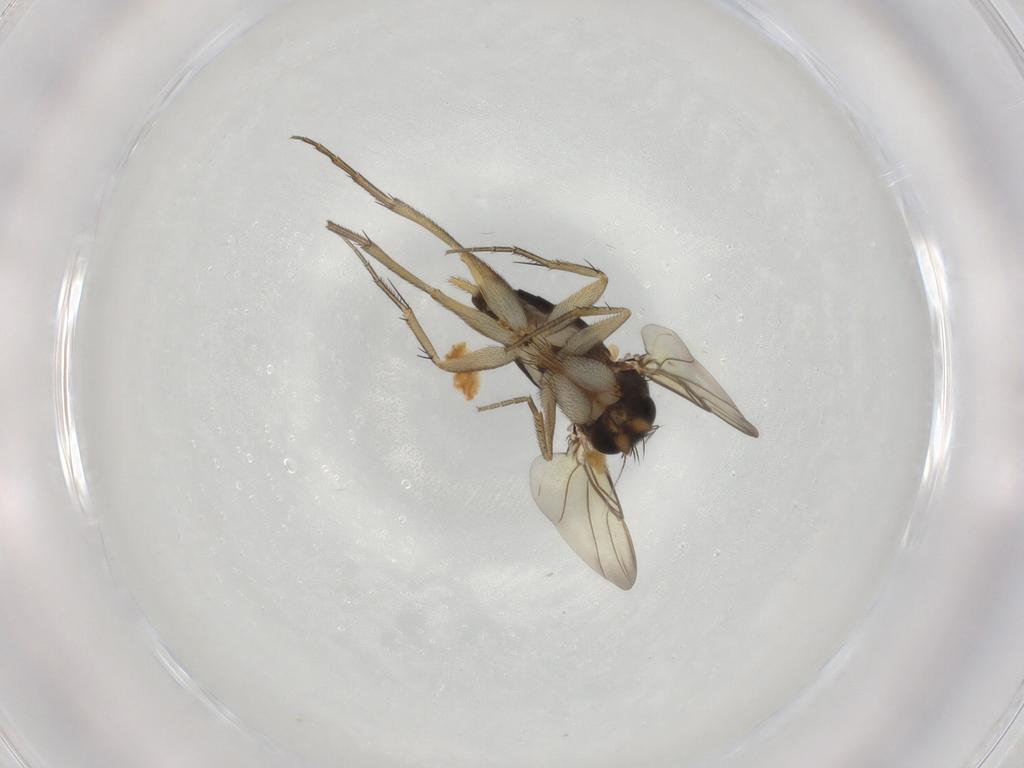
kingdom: Animalia
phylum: Arthropoda
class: Insecta
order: Diptera
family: Phoridae
